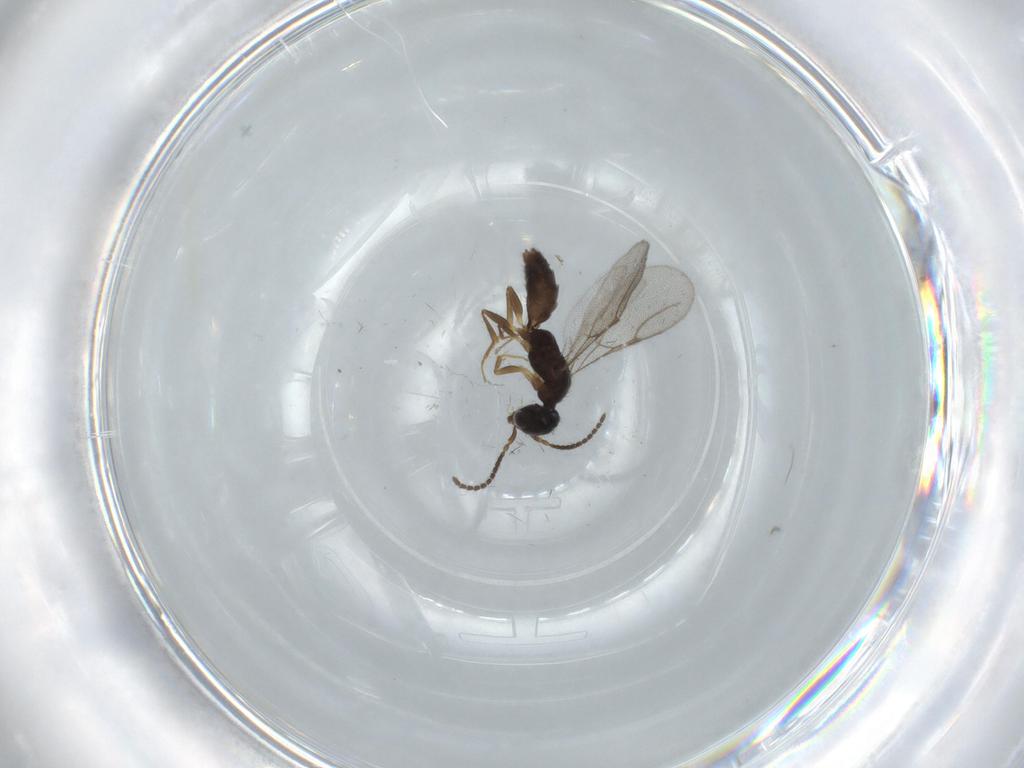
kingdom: Animalia
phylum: Arthropoda
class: Insecta
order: Hymenoptera
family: Bethylidae
